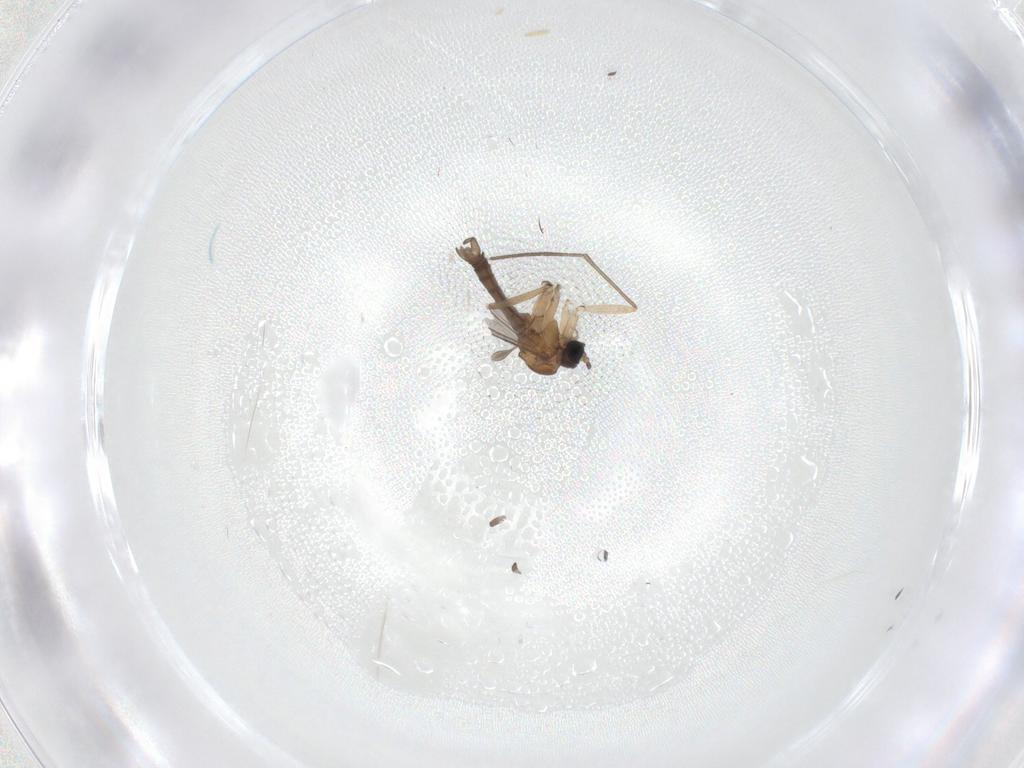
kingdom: Animalia
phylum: Arthropoda
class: Insecta
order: Diptera
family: Sciaridae
